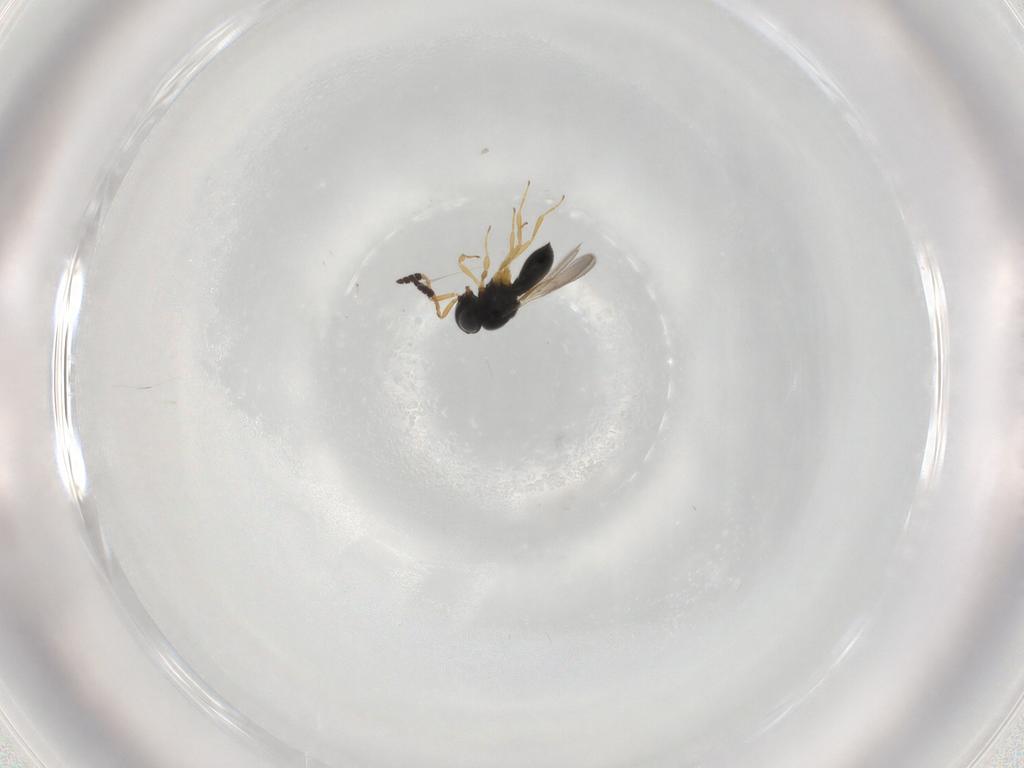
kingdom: Animalia
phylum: Arthropoda
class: Insecta
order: Hymenoptera
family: Scelionidae
